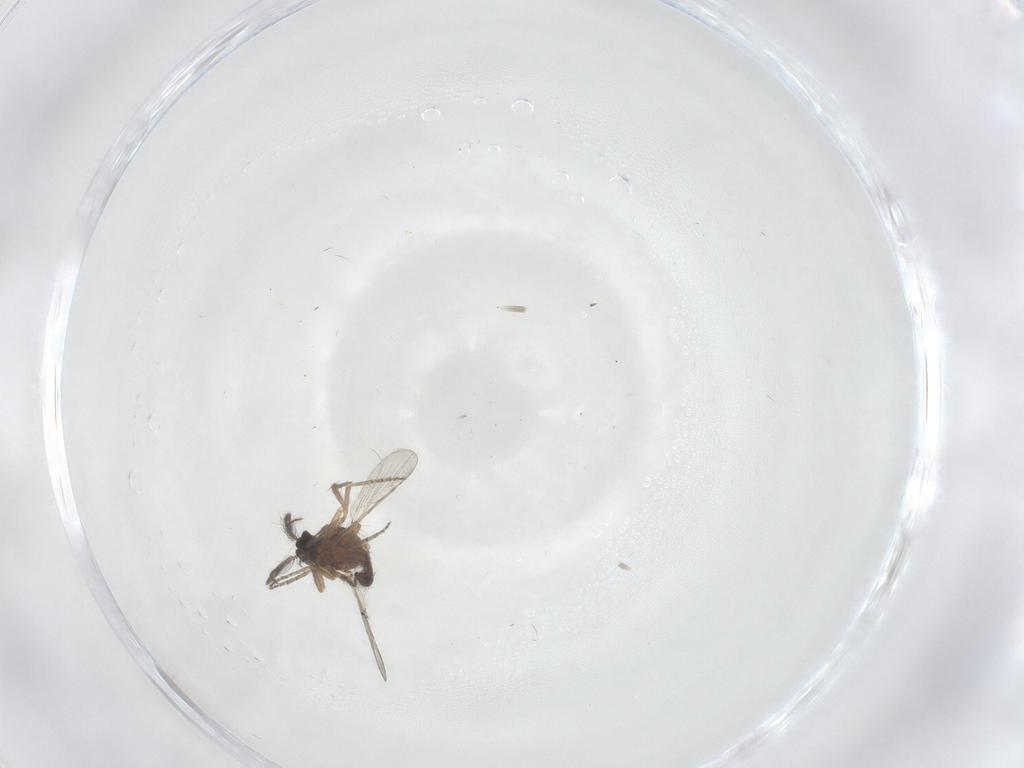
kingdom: Animalia
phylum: Arthropoda
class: Insecta
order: Diptera
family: Ceratopogonidae
